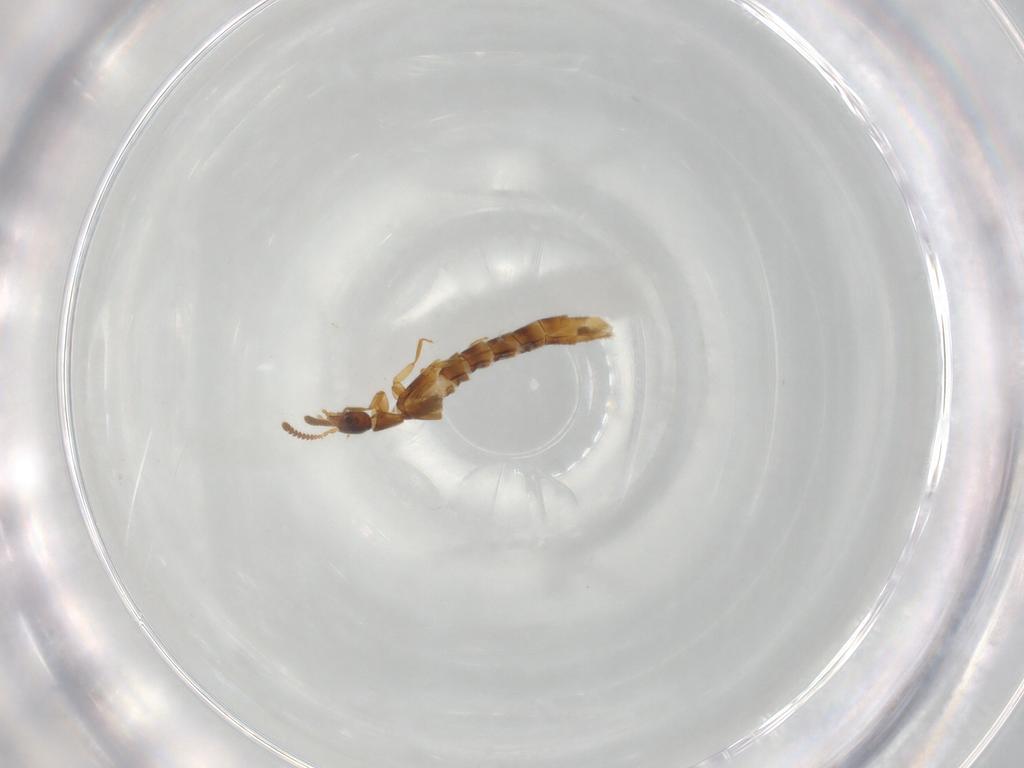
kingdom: Animalia
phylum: Arthropoda
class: Insecta
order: Coleoptera
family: Staphylinidae
